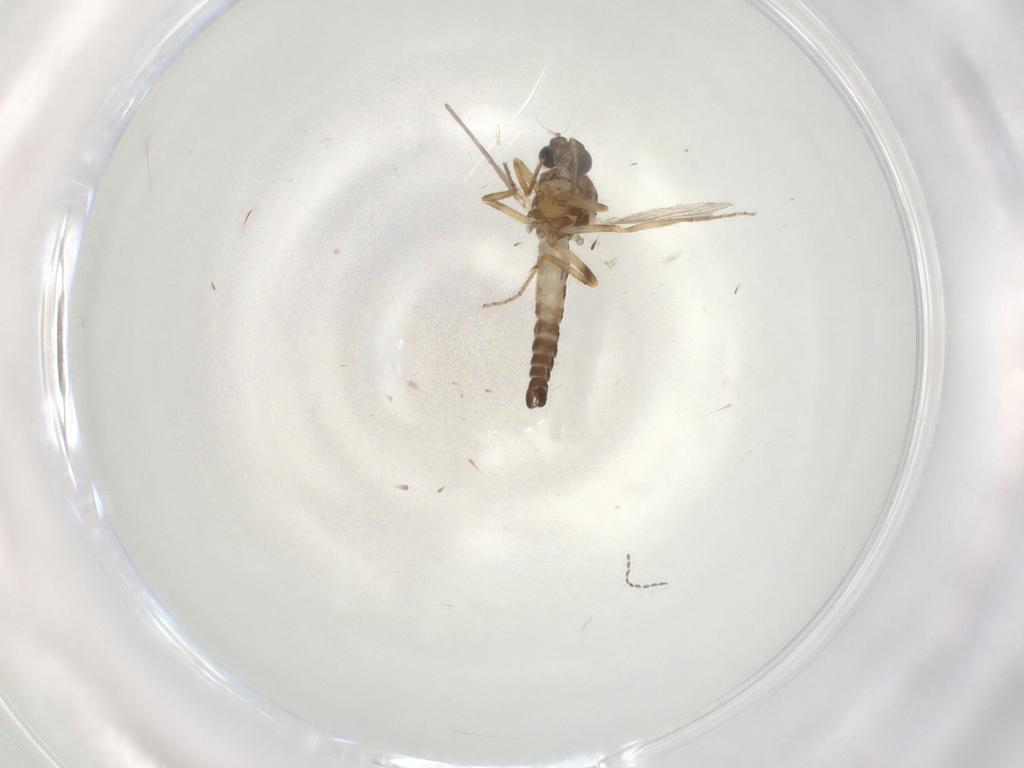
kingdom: Animalia
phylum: Arthropoda
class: Insecta
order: Diptera
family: Ceratopogonidae
